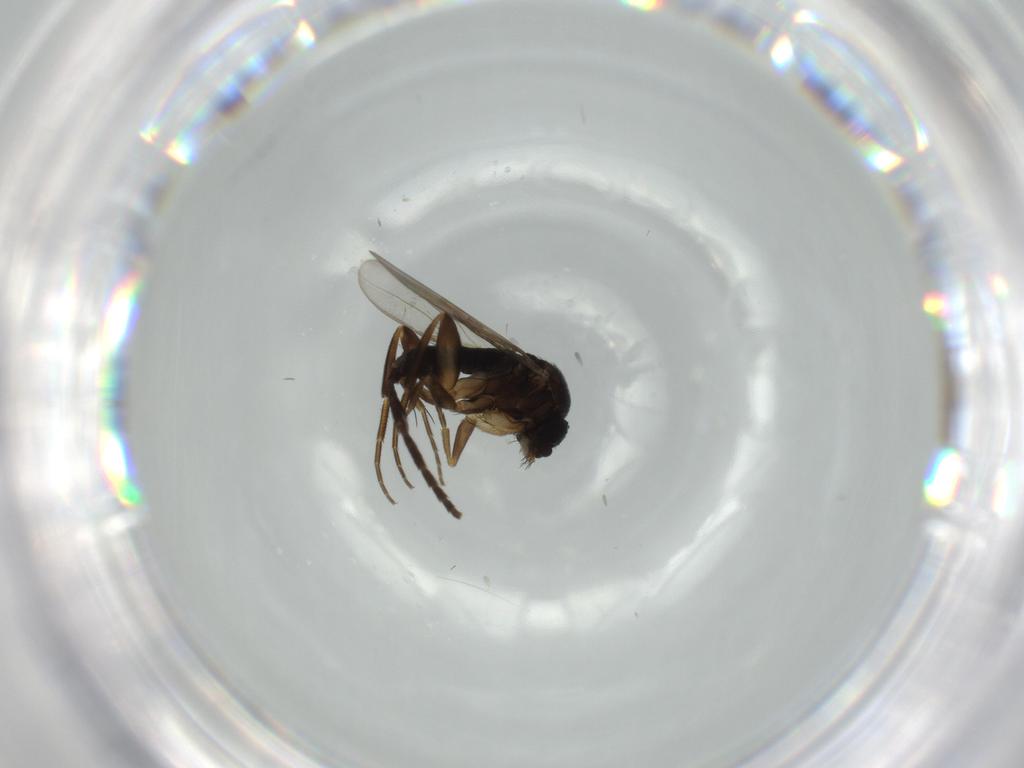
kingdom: Animalia
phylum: Arthropoda
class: Insecta
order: Diptera
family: Phoridae
